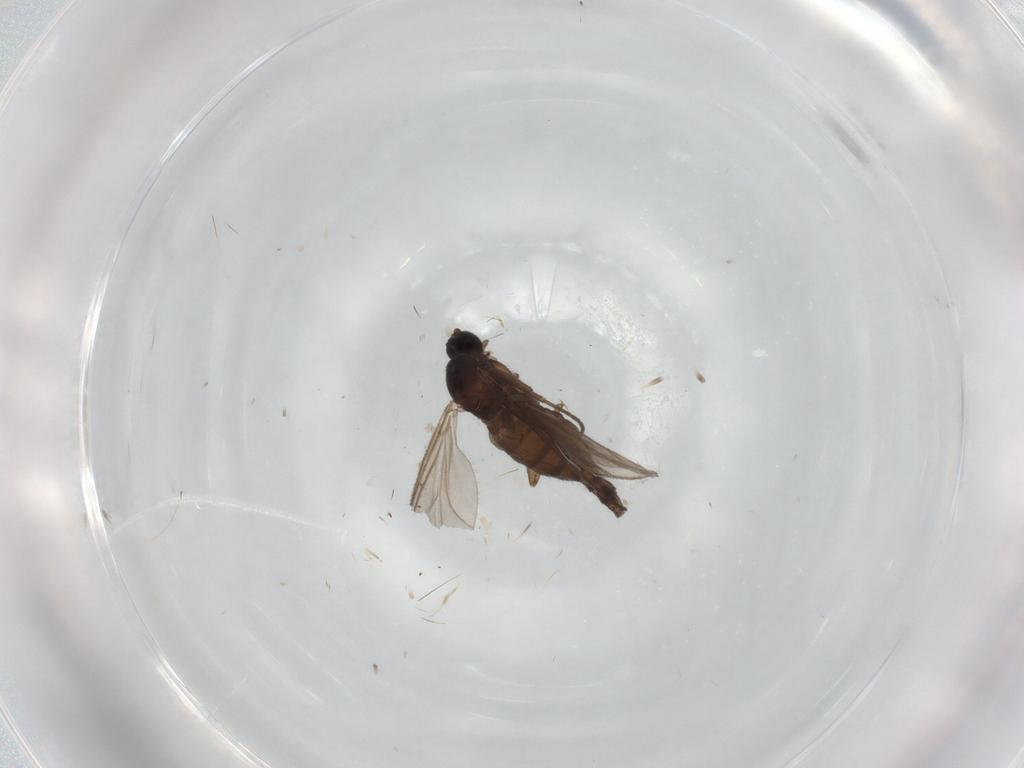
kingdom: Animalia
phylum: Arthropoda
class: Insecta
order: Diptera
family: Sciaridae
